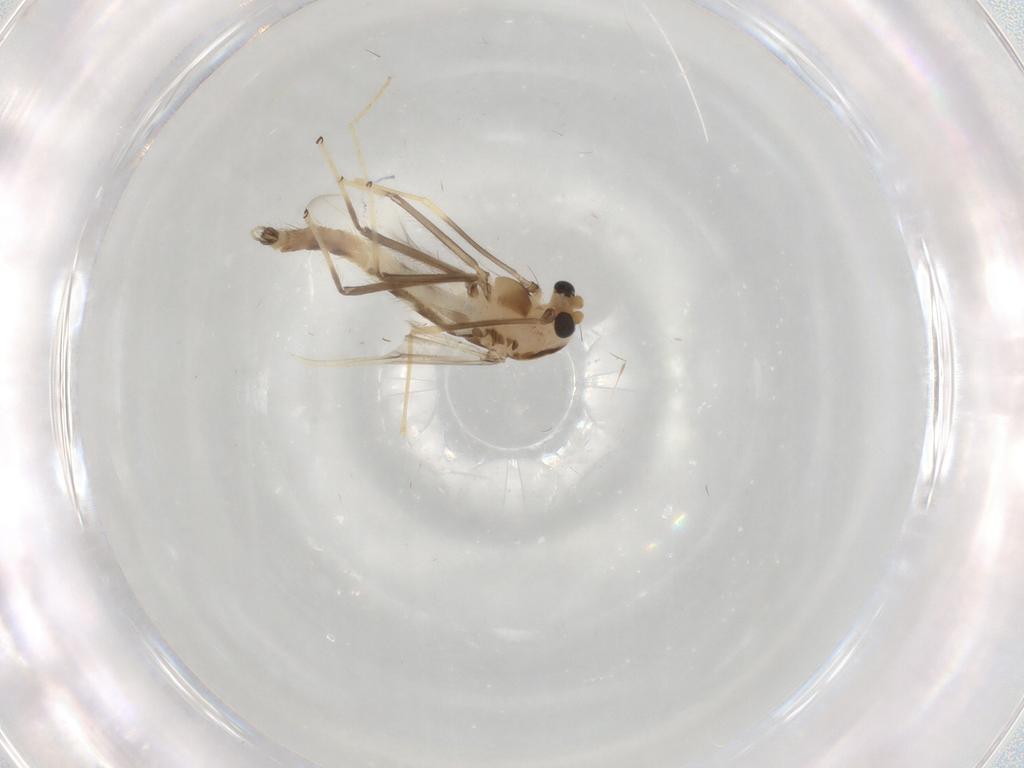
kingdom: Animalia
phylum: Arthropoda
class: Insecta
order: Diptera
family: Chironomidae
